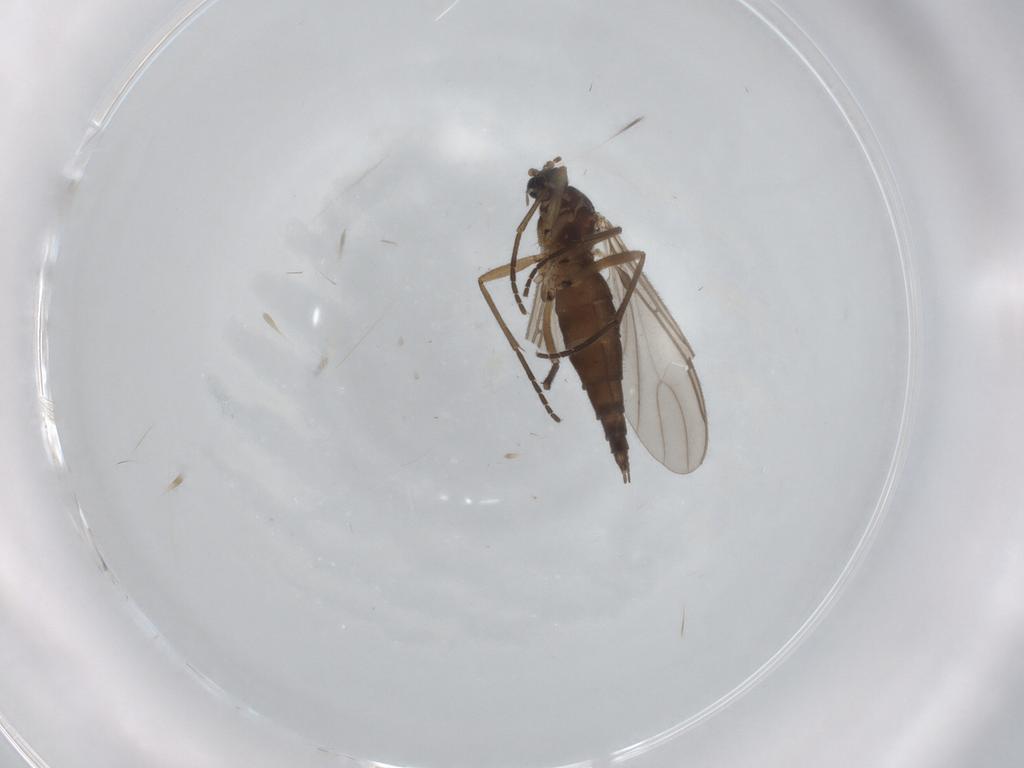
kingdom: Animalia
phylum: Arthropoda
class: Insecta
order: Diptera
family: Sciaridae
